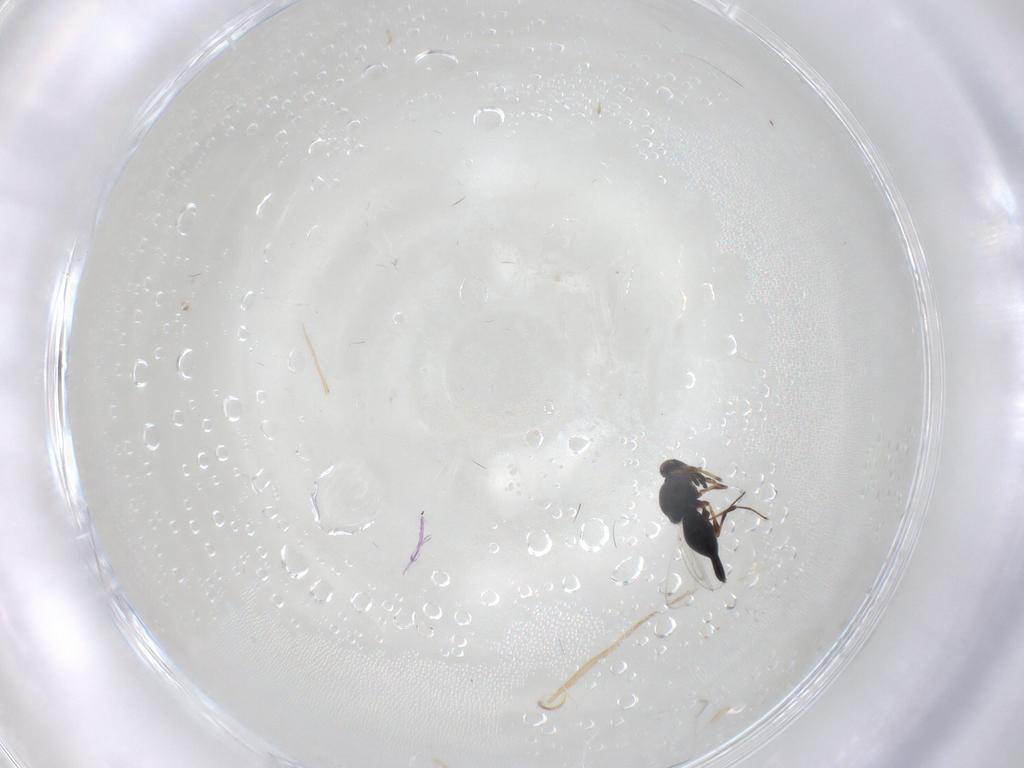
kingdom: Animalia
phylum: Arthropoda
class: Insecta
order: Hymenoptera
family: Platygastridae
